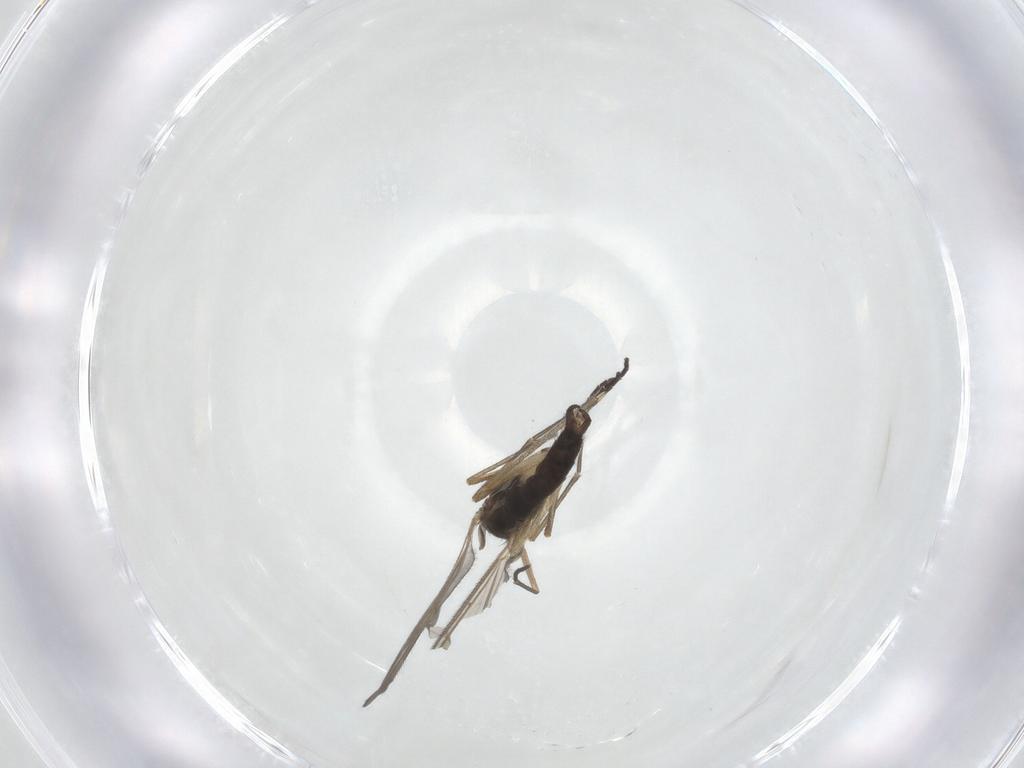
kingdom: Animalia
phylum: Arthropoda
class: Insecta
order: Diptera
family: Sciaridae
